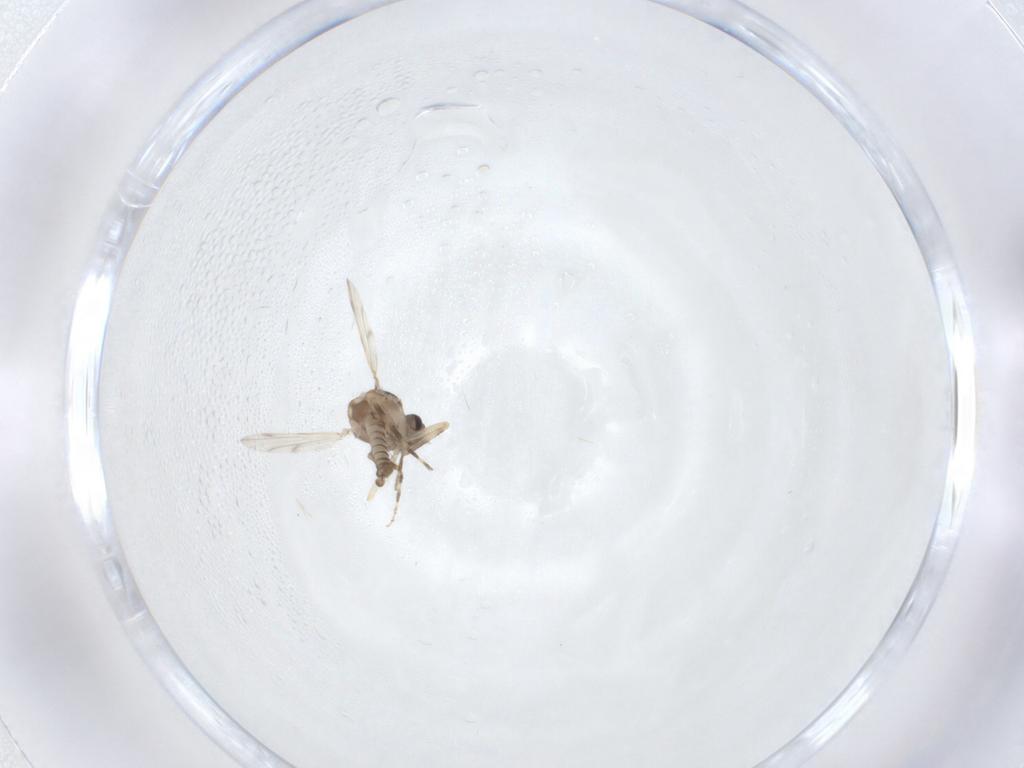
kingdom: Animalia
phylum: Arthropoda
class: Insecta
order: Diptera
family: Ceratopogonidae
